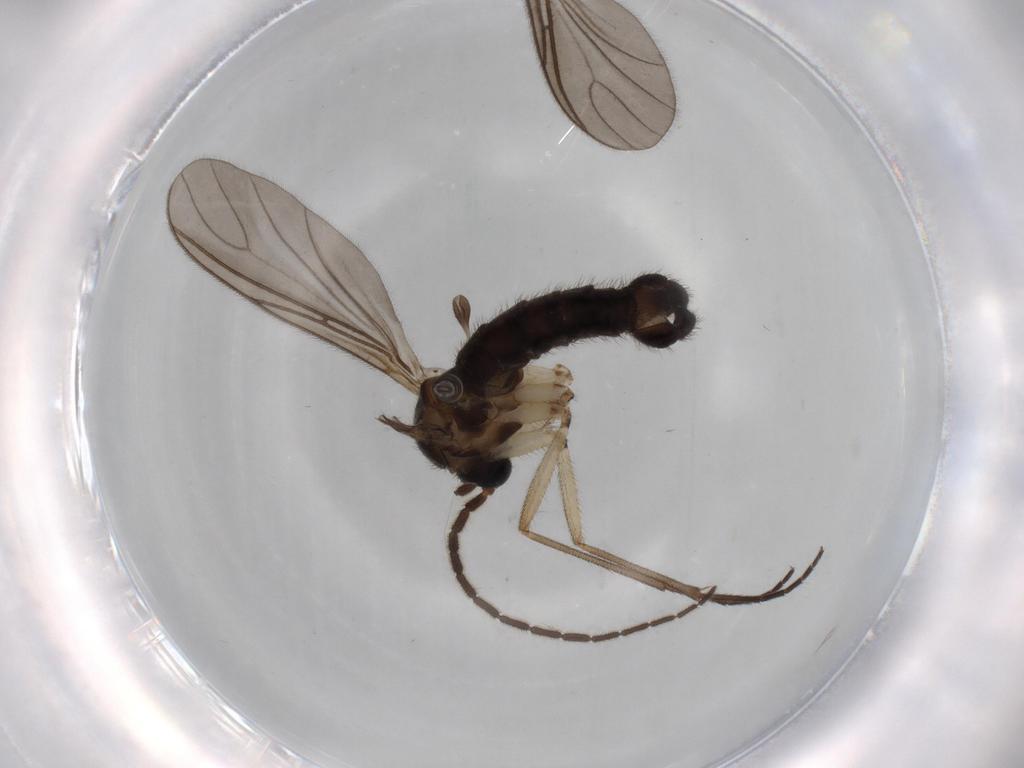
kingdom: Animalia
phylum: Arthropoda
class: Insecta
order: Diptera
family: Sciaridae
